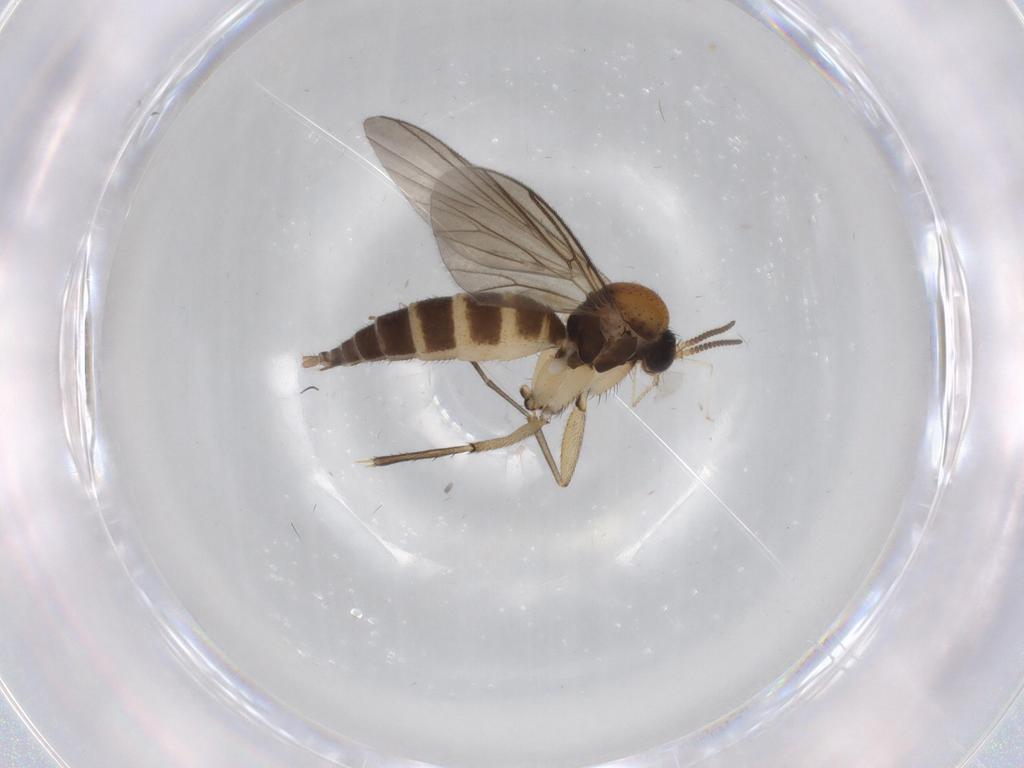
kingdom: Animalia
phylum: Arthropoda
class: Insecta
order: Diptera
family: Mycetophilidae
